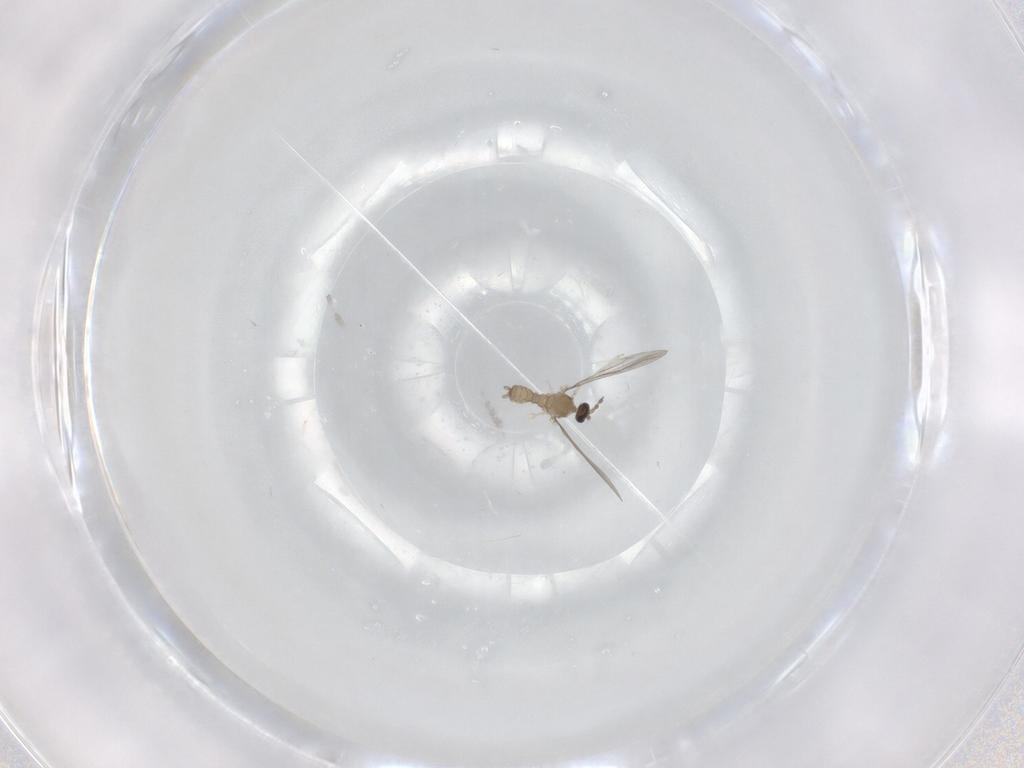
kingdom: Animalia
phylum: Arthropoda
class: Insecta
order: Diptera
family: Cecidomyiidae
